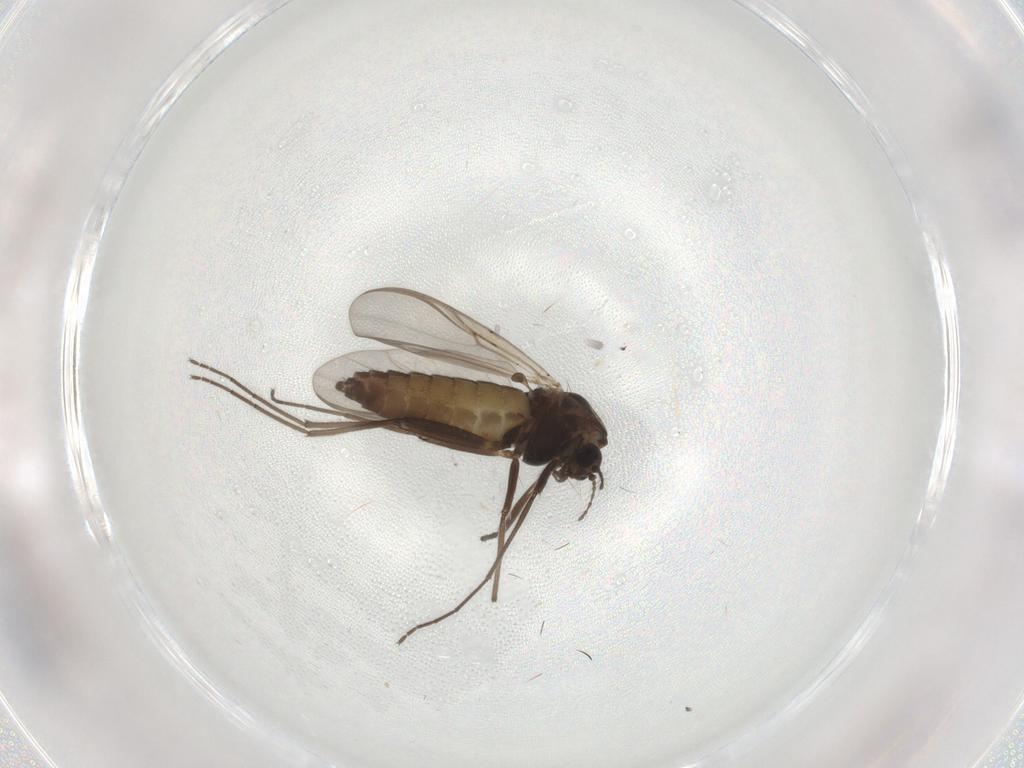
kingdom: Animalia
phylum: Arthropoda
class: Insecta
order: Diptera
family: Chironomidae
